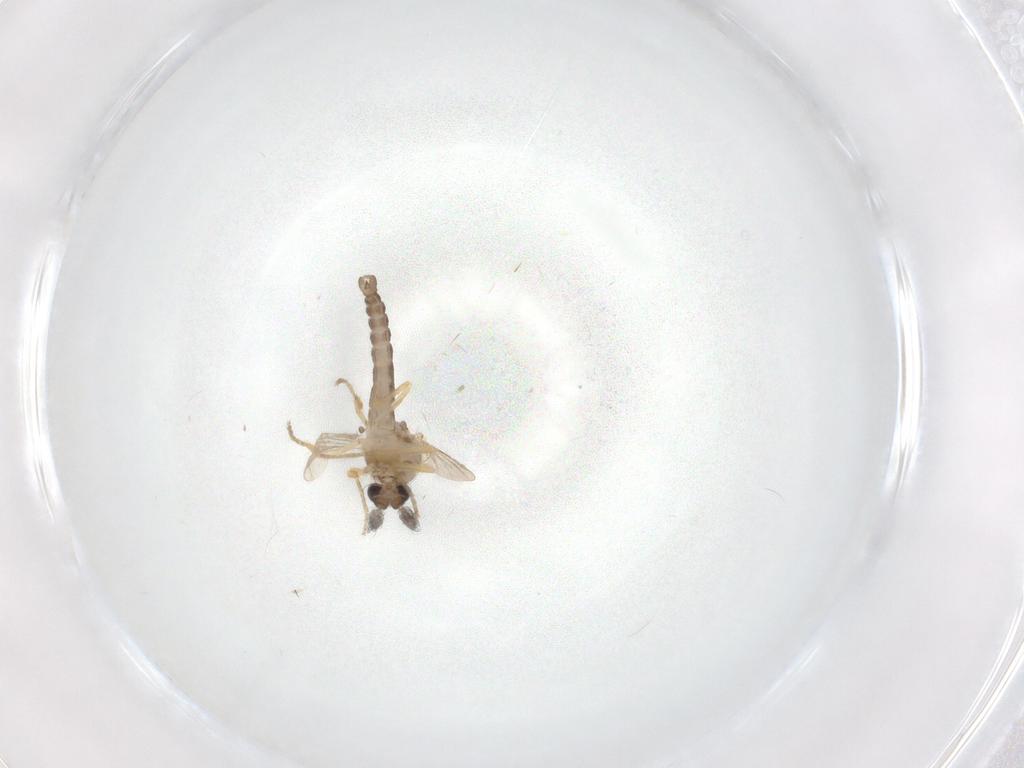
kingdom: Animalia
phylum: Arthropoda
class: Insecta
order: Diptera
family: Ceratopogonidae
